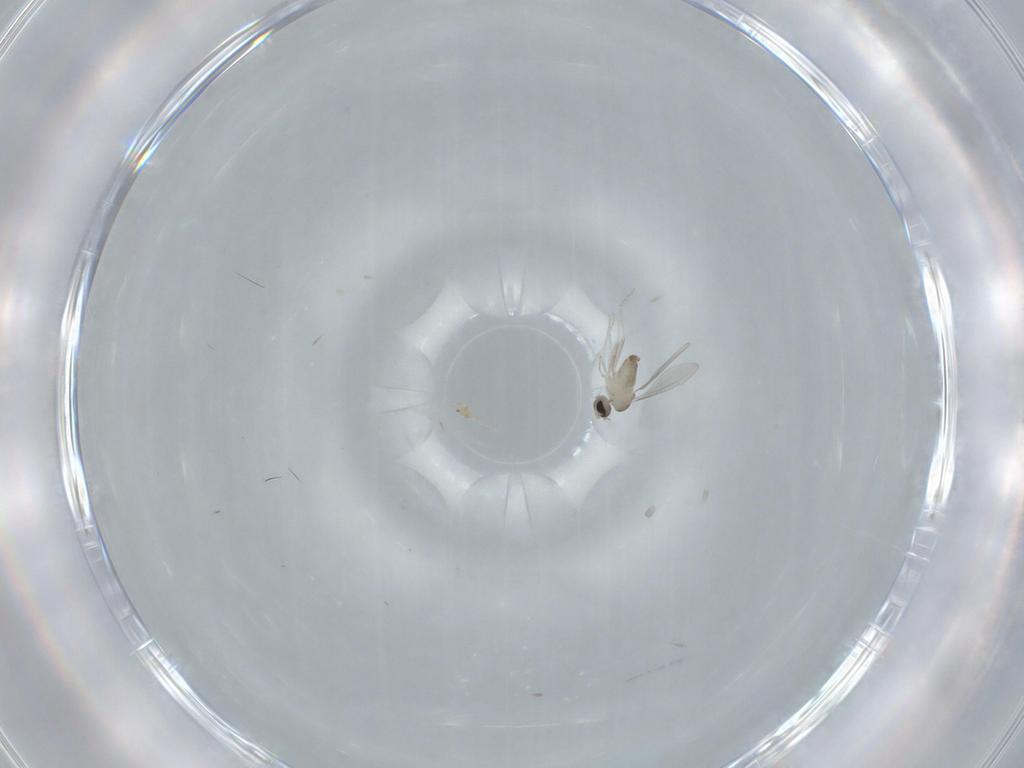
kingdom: Animalia
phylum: Arthropoda
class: Insecta
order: Diptera
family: Cecidomyiidae
